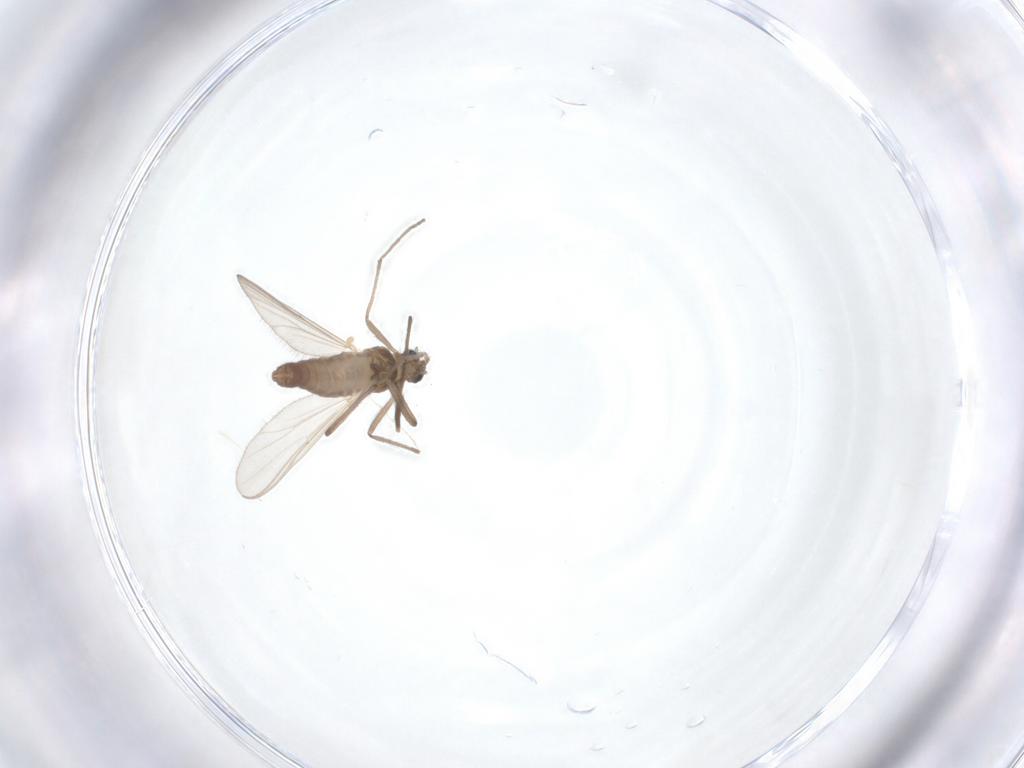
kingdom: Animalia
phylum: Arthropoda
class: Insecta
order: Diptera
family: Chironomidae
